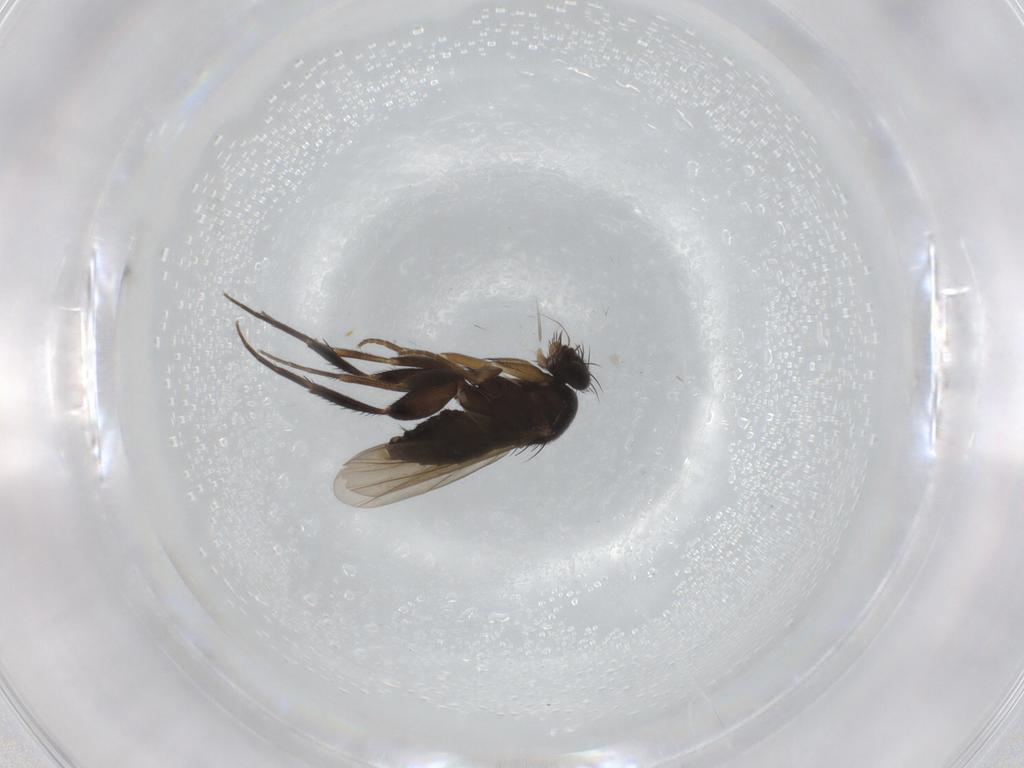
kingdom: Animalia
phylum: Arthropoda
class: Insecta
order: Diptera
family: Phoridae
